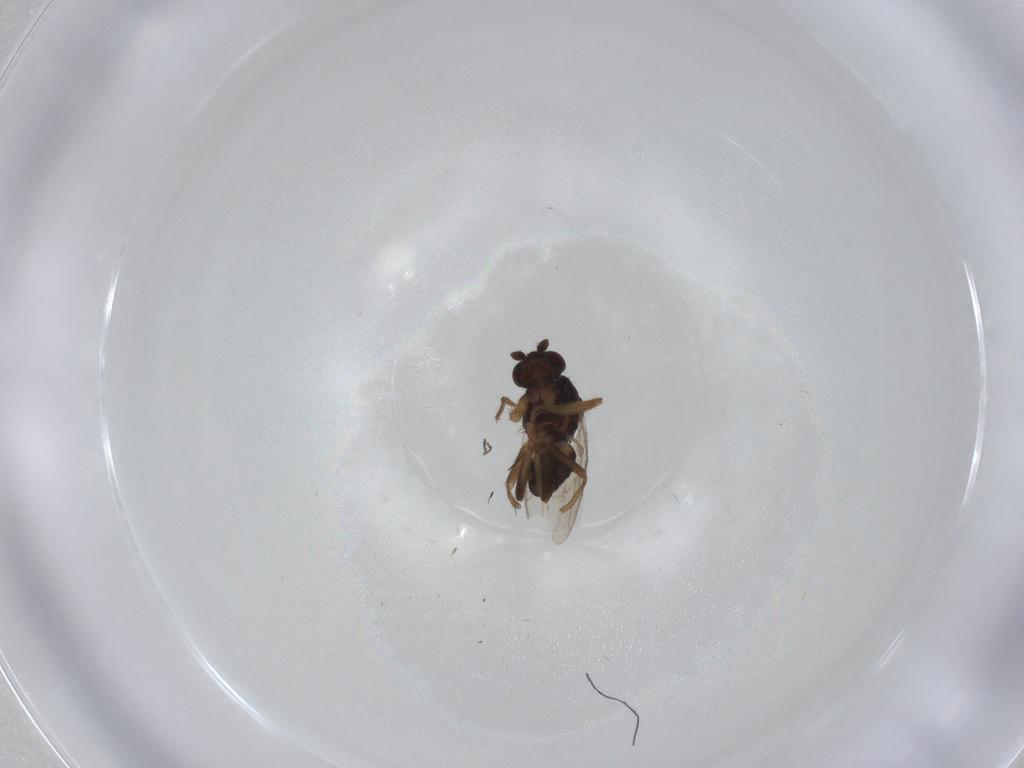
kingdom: Animalia
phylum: Arthropoda
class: Insecta
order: Diptera
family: Sphaeroceridae
